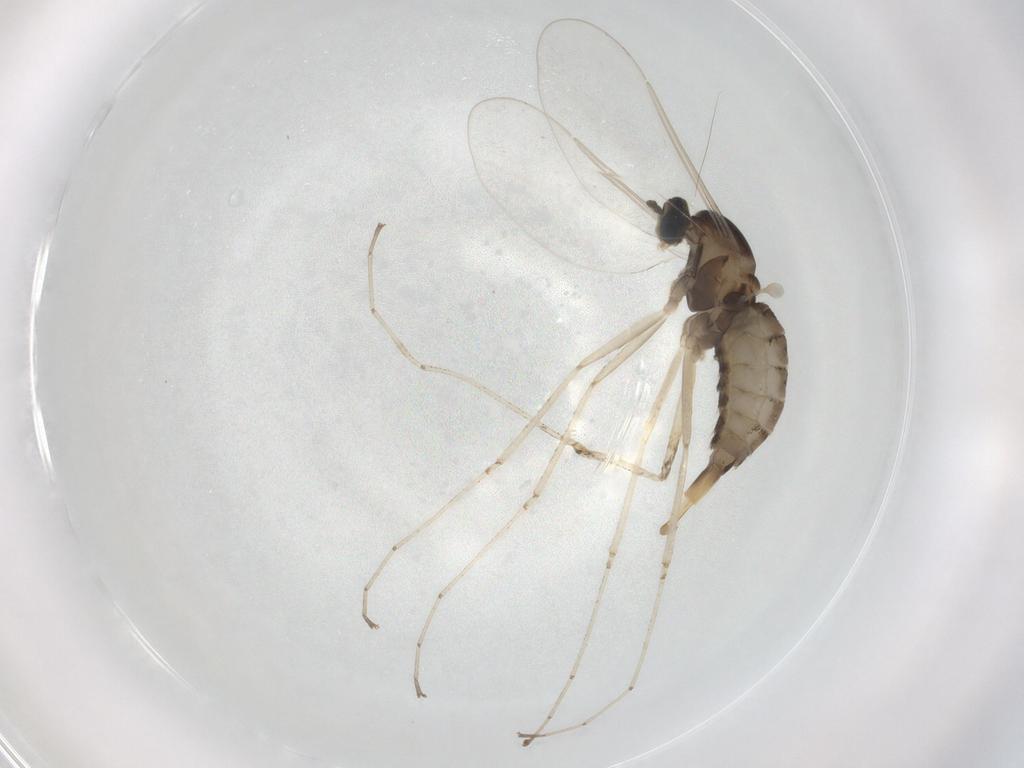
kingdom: Animalia
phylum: Arthropoda
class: Insecta
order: Diptera
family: Cecidomyiidae
